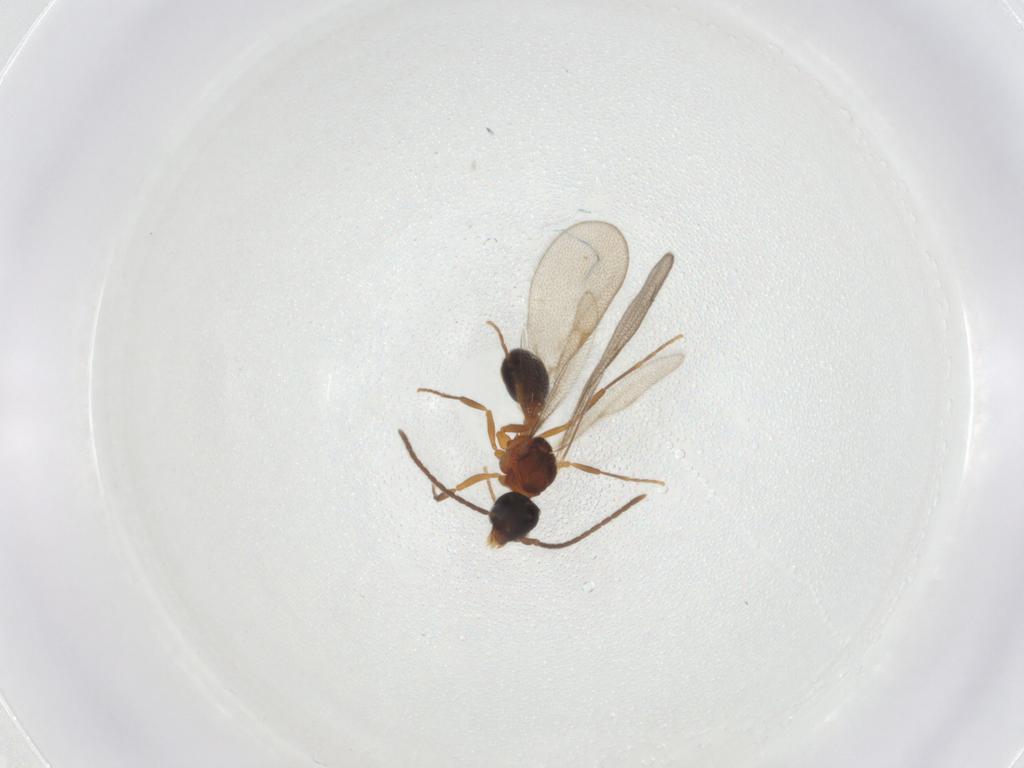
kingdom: Animalia
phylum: Arthropoda
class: Insecta
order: Hymenoptera
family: Formicidae
